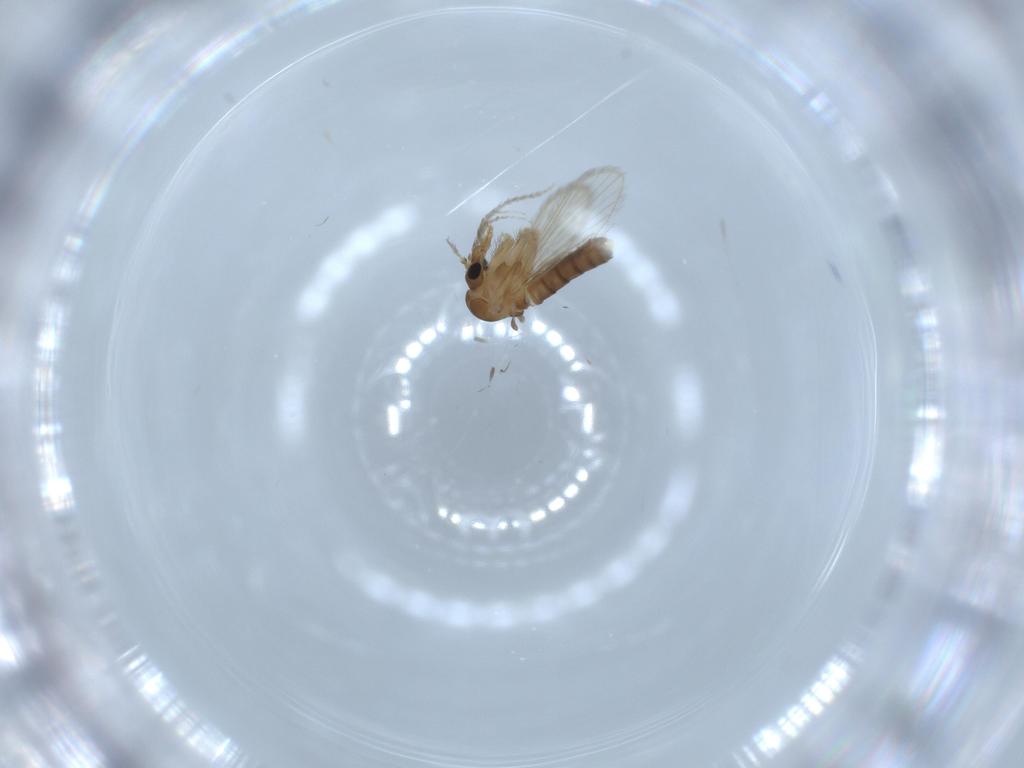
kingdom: Animalia
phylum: Arthropoda
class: Insecta
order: Diptera
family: Psychodidae
